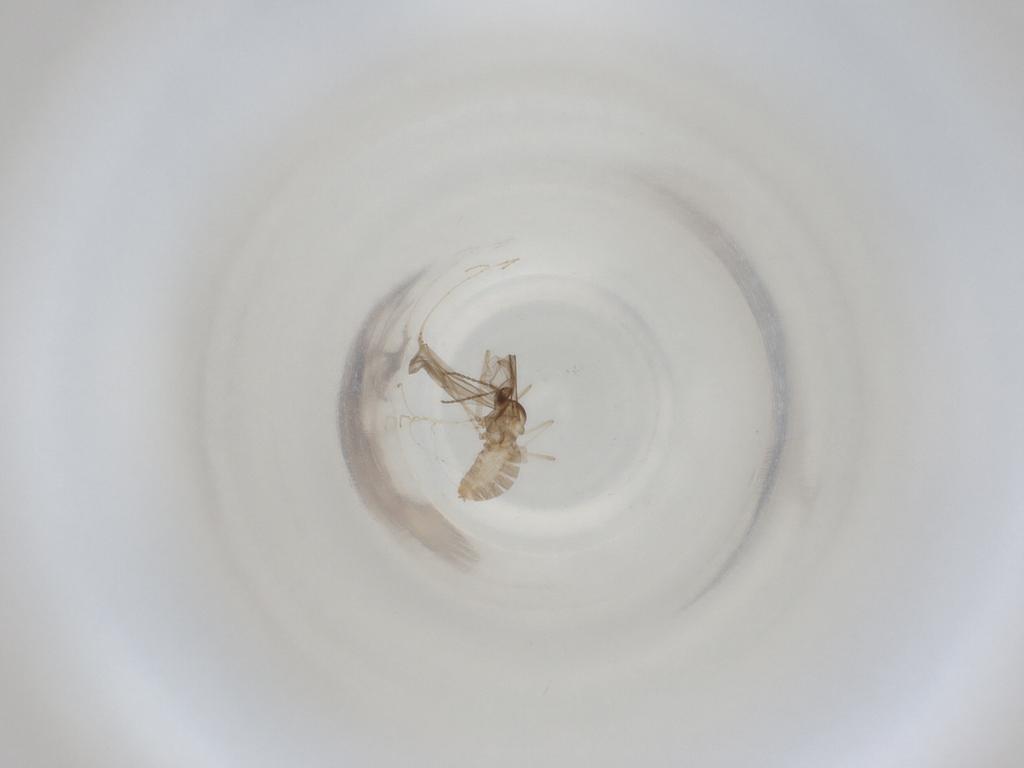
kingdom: Animalia
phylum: Arthropoda
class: Insecta
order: Diptera
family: Cecidomyiidae
